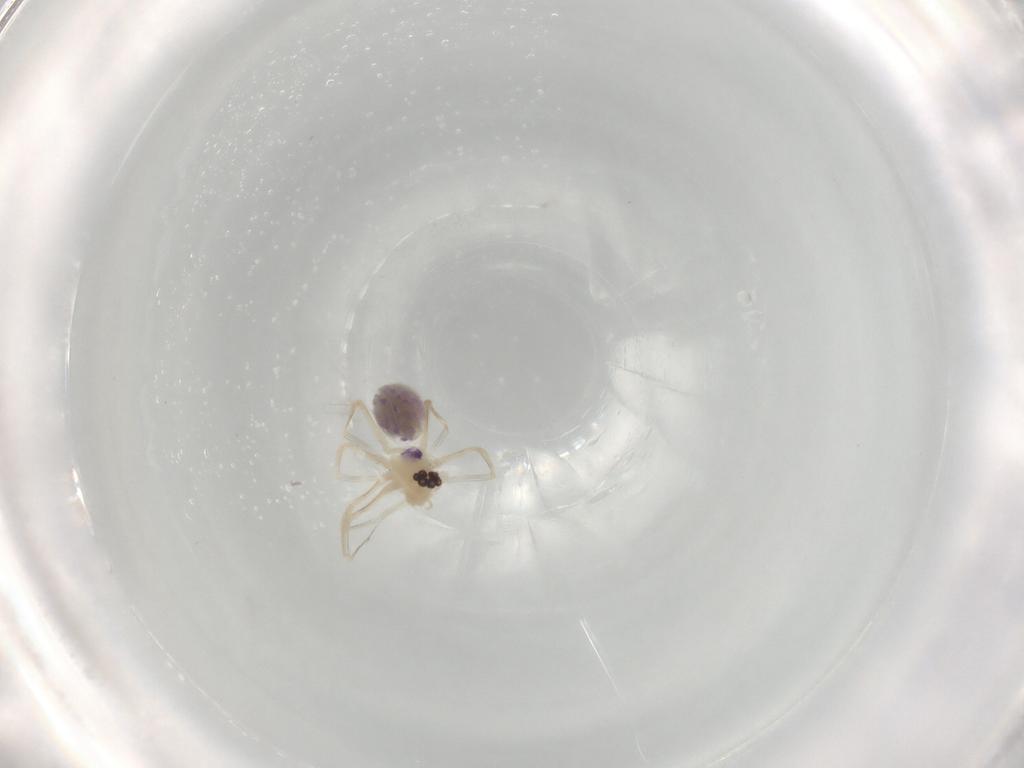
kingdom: Animalia
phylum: Arthropoda
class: Arachnida
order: Araneae
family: Pholcidae
